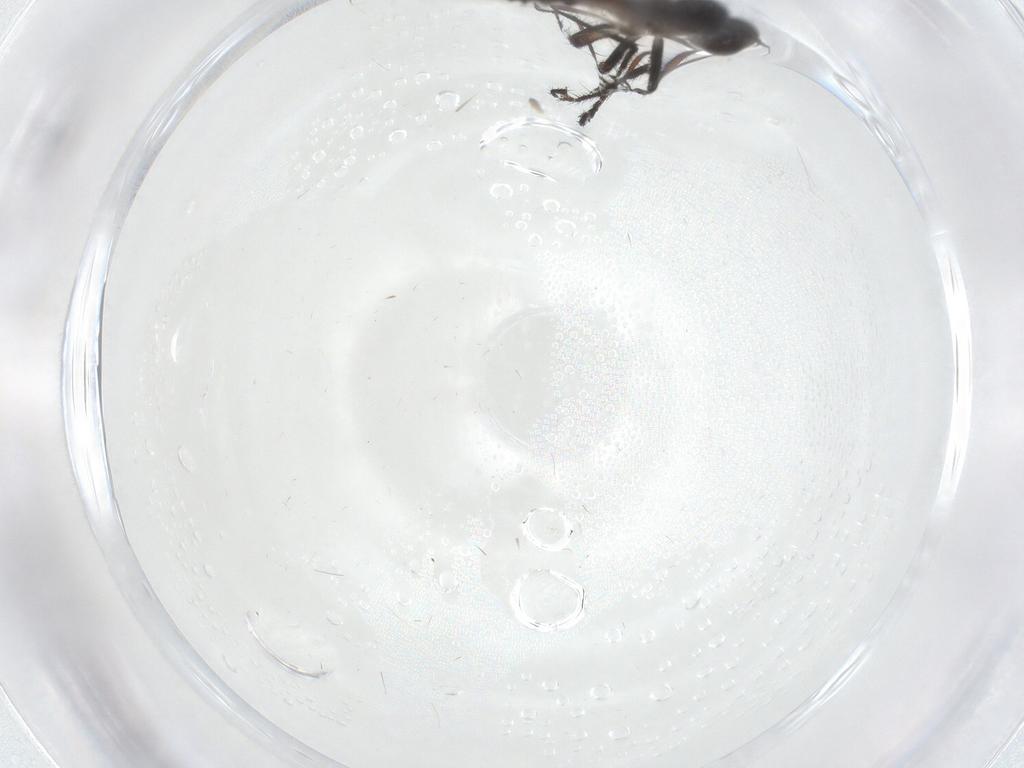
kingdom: Animalia
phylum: Arthropoda
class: Insecta
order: Diptera
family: Hybotidae
